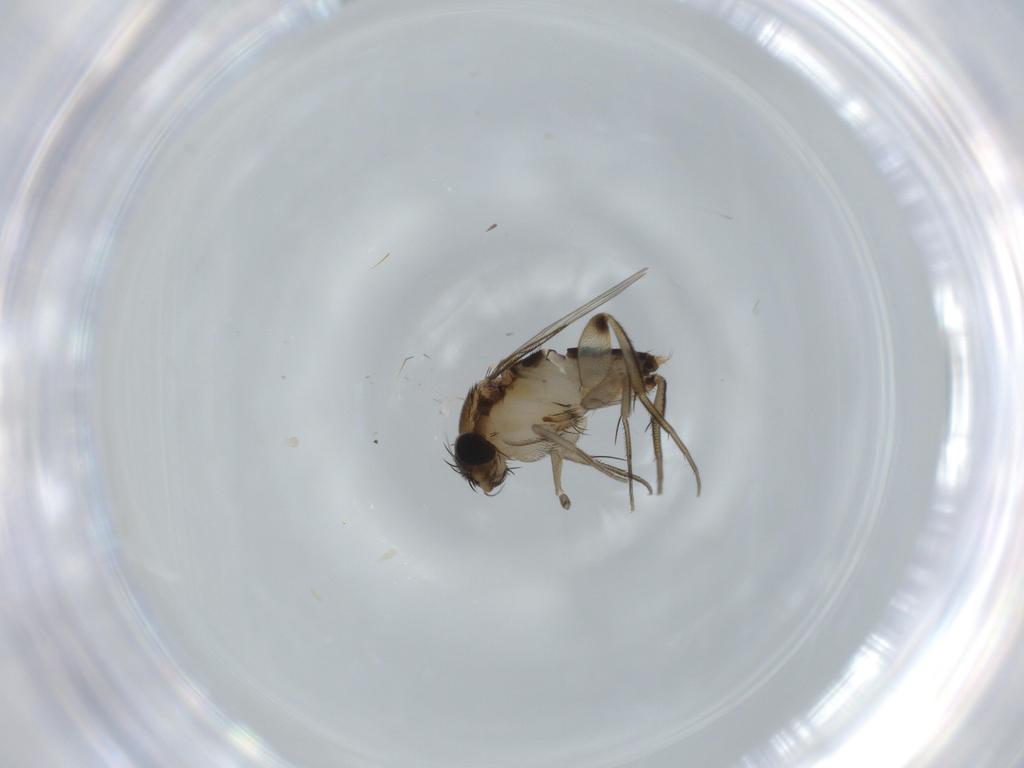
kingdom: Animalia
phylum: Arthropoda
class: Insecta
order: Diptera
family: Phoridae
